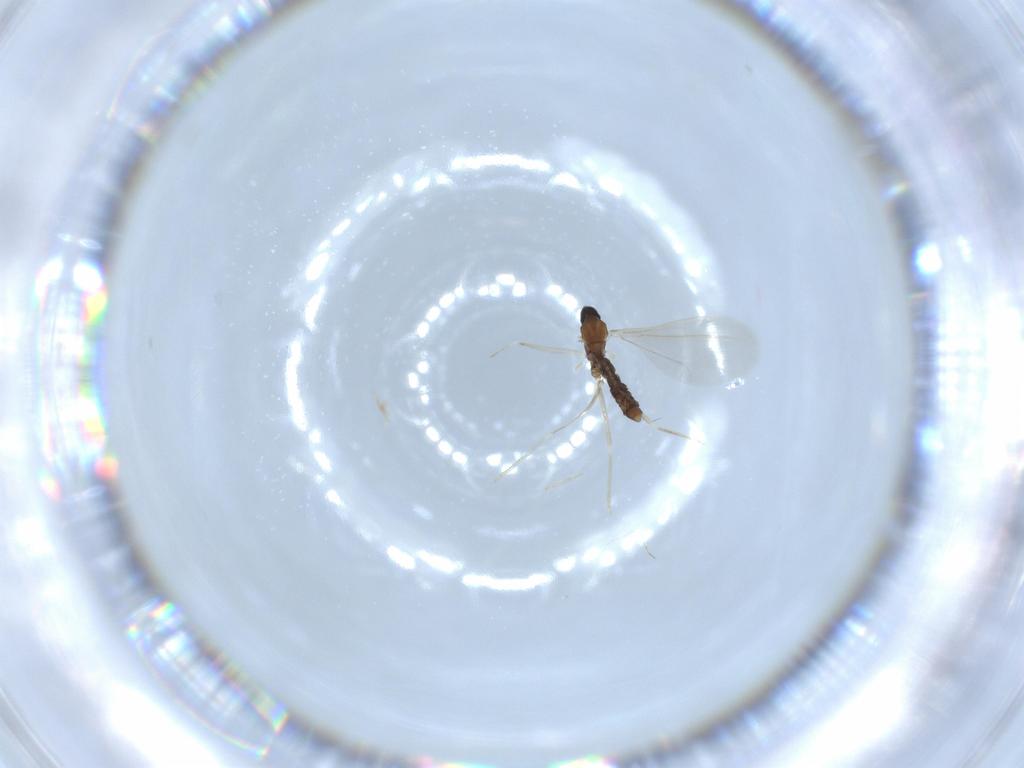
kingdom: Animalia
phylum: Arthropoda
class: Insecta
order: Diptera
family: Cecidomyiidae
